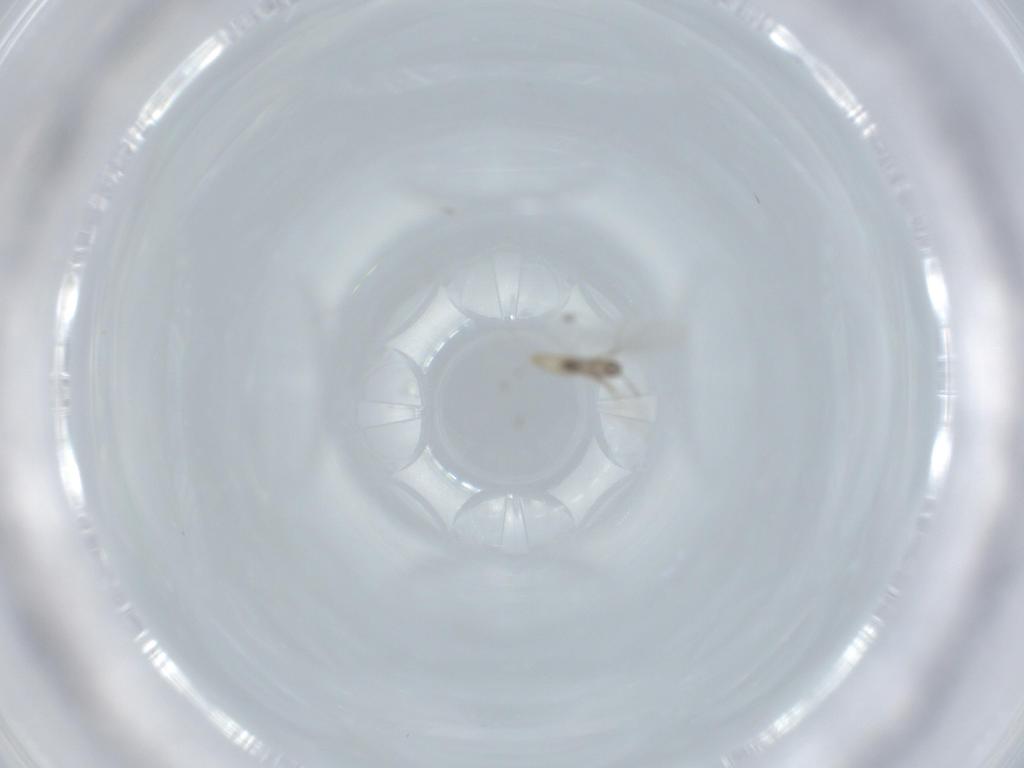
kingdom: Animalia
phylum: Arthropoda
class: Insecta
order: Diptera
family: Cecidomyiidae
